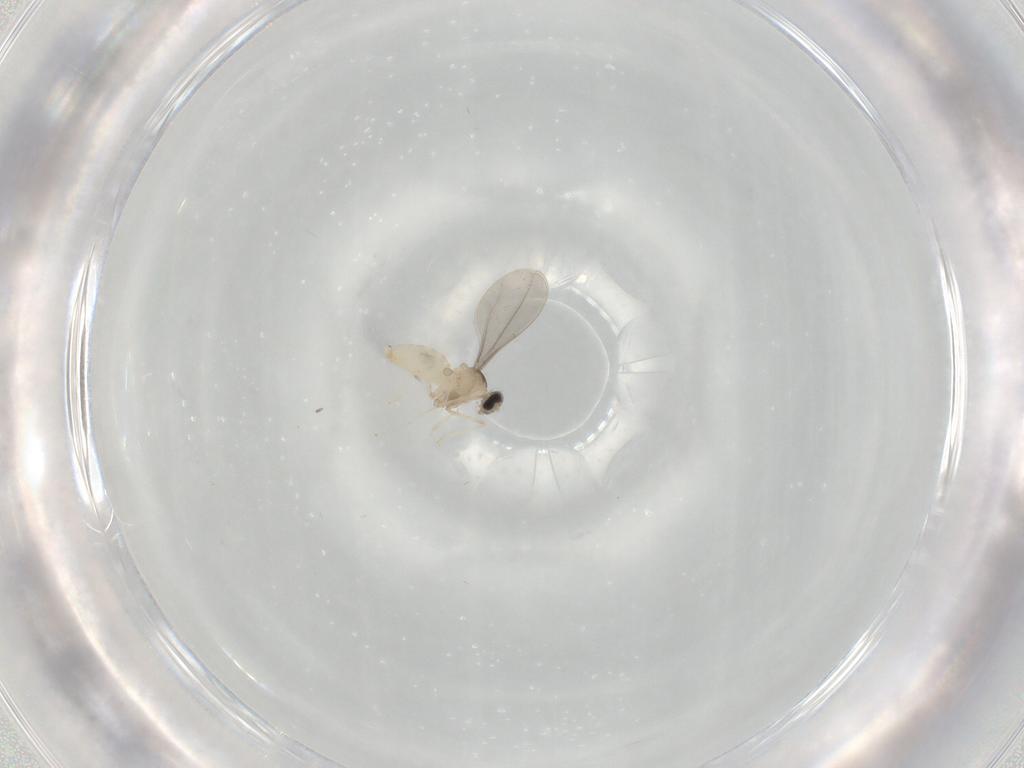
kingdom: Animalia
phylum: Arthropoda
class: Insecta
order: Diptera
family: Cecidomyiidae
